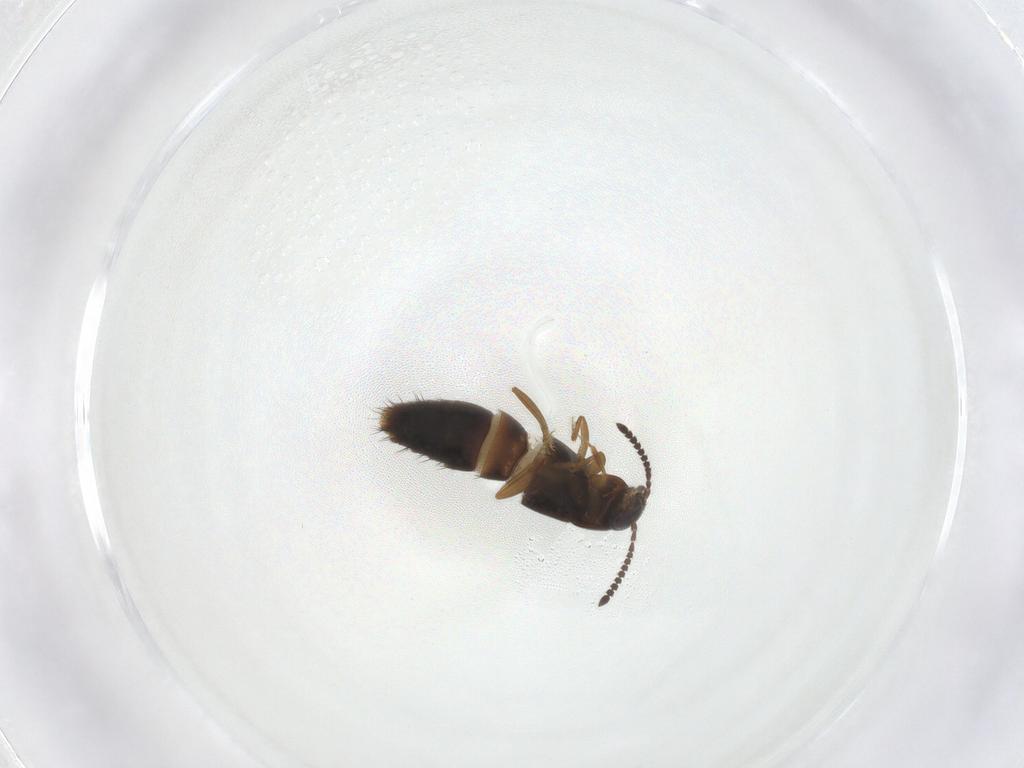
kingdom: Animalia
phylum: Arthropoda
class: Insecta
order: Coleoptera
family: Staphylinidae
